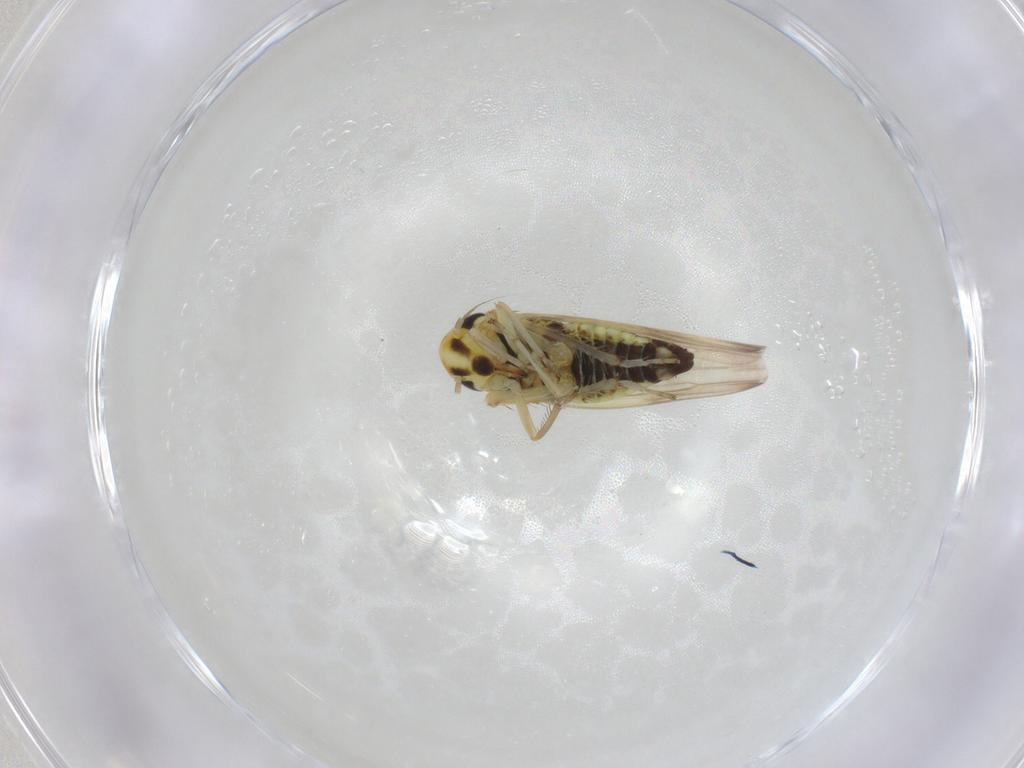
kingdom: Animalia
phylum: Arthropoda
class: Insecta
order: Hemiptera
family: Cicadellidae
